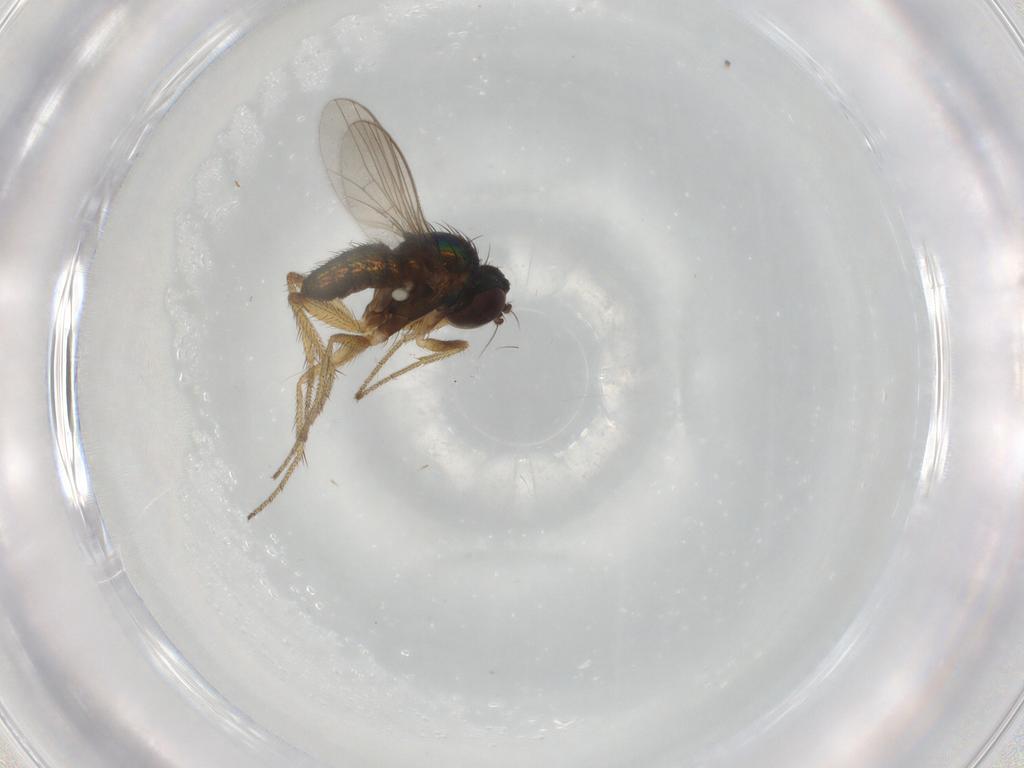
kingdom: Animalia
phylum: Arthropoda
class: Insecta
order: Diptera
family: Dolichopodidae
